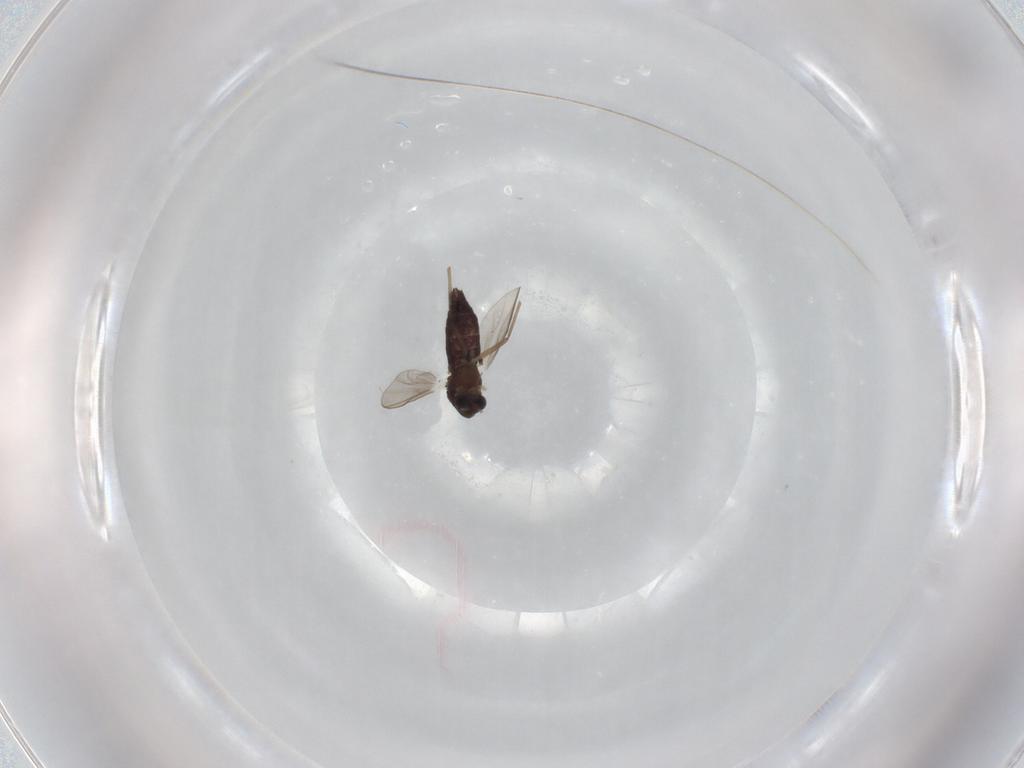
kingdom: Animalia
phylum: Arthropoda
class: Insecta
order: Diptera
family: Chironomidae
